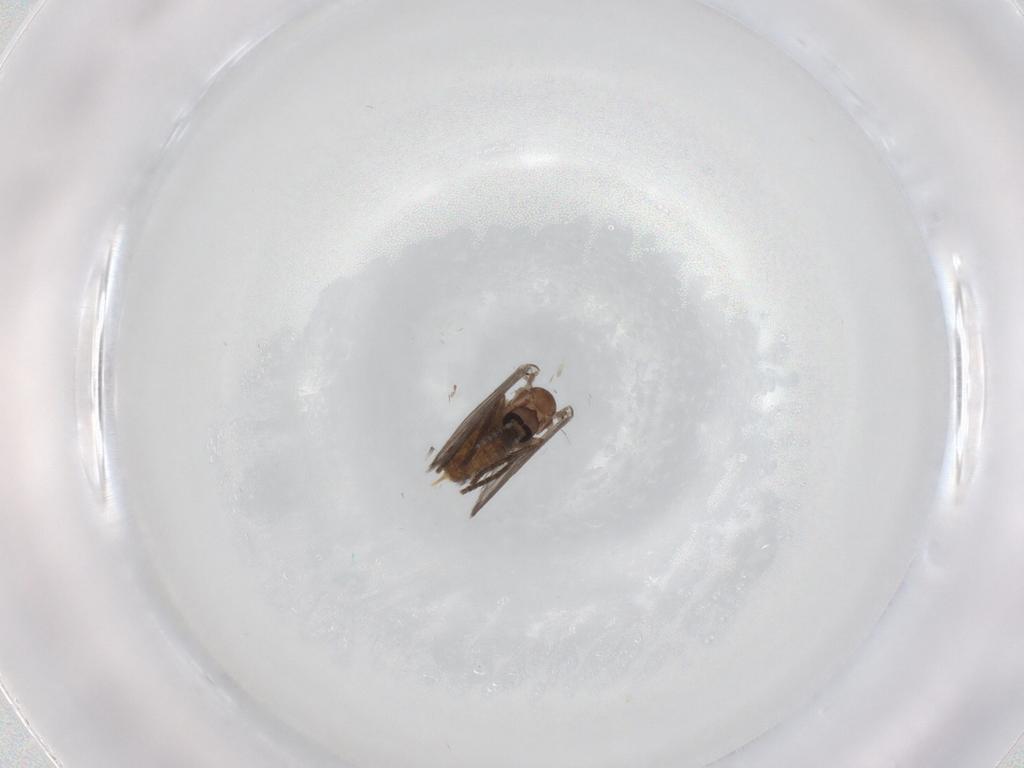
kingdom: Animalia
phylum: Arthropoda
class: Insecta
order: Diptera
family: Psychodidae
